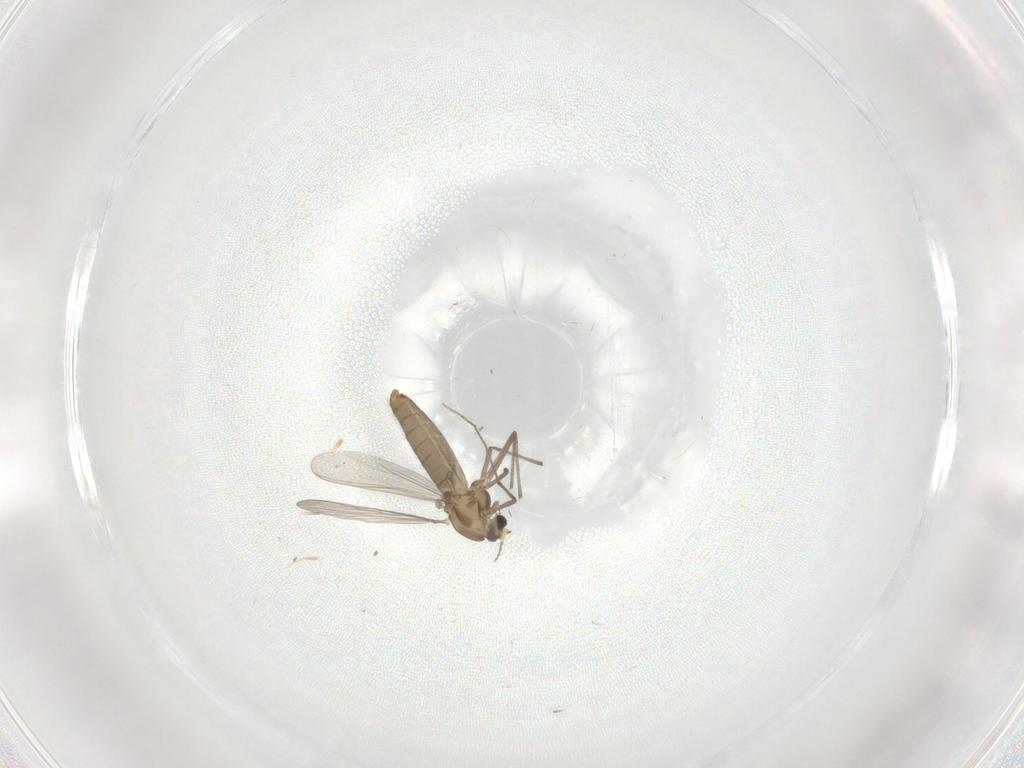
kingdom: Animalia
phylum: Arthropoda
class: Insecta
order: Diptera
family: Chironomidae
